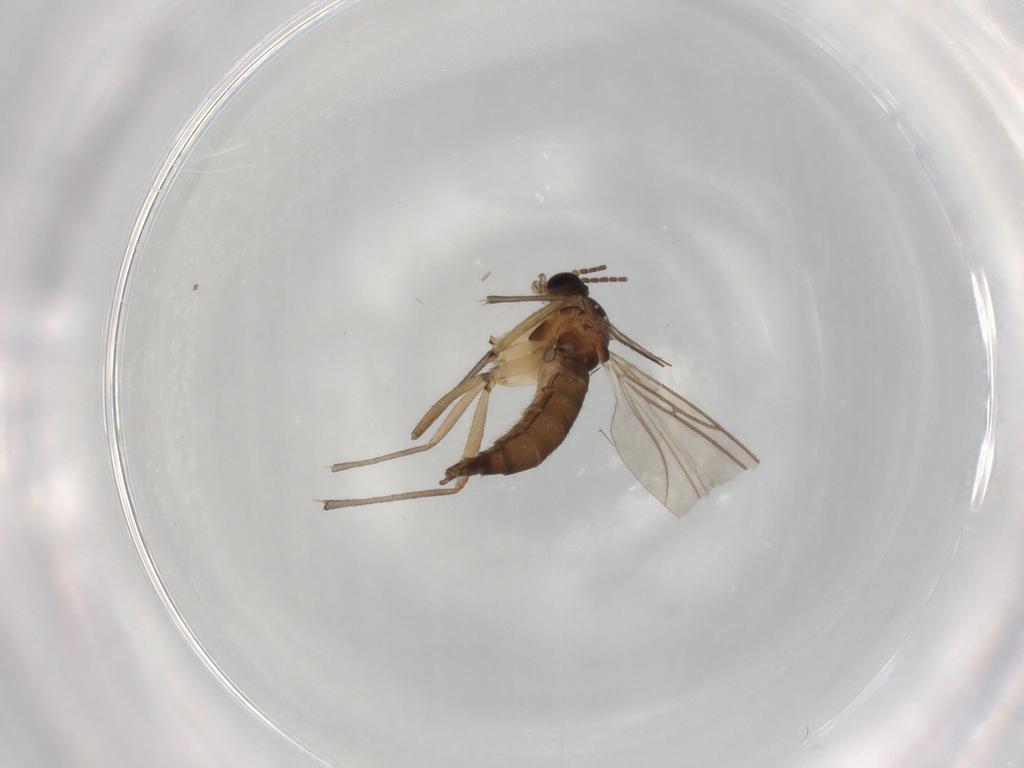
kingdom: Animalia
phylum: Arthropoda
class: Insecta
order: Diptera
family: Sciaridae
